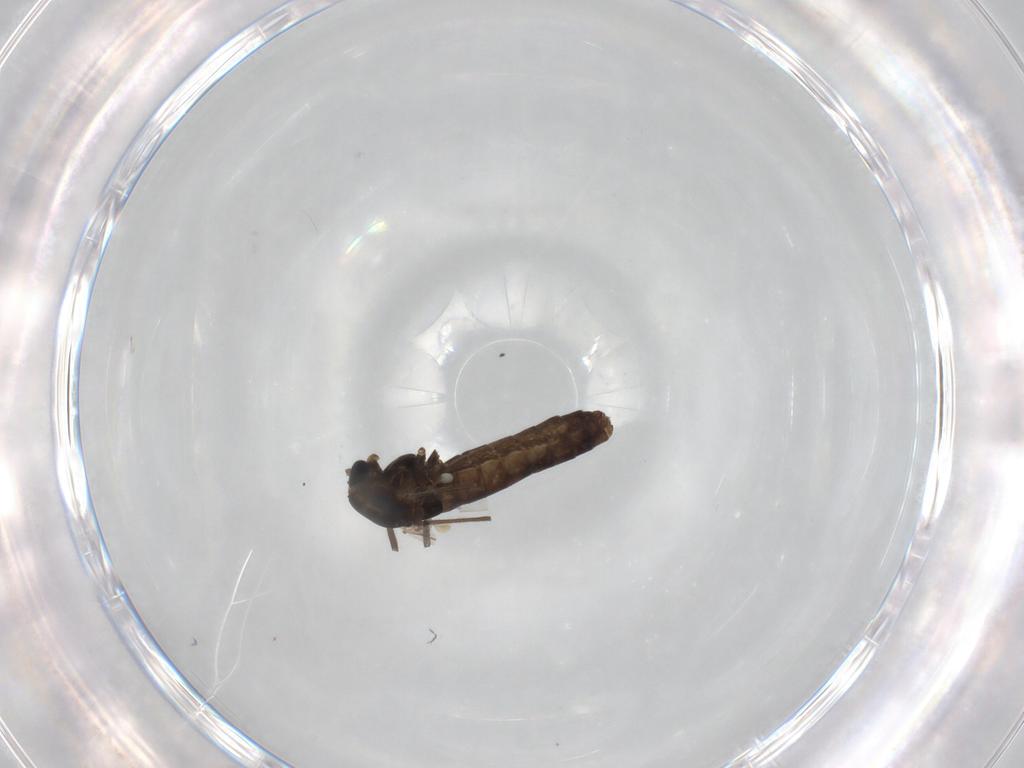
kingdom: Animalia
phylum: Arthropoda
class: Insecta
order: Diptera
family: Chironomidae
